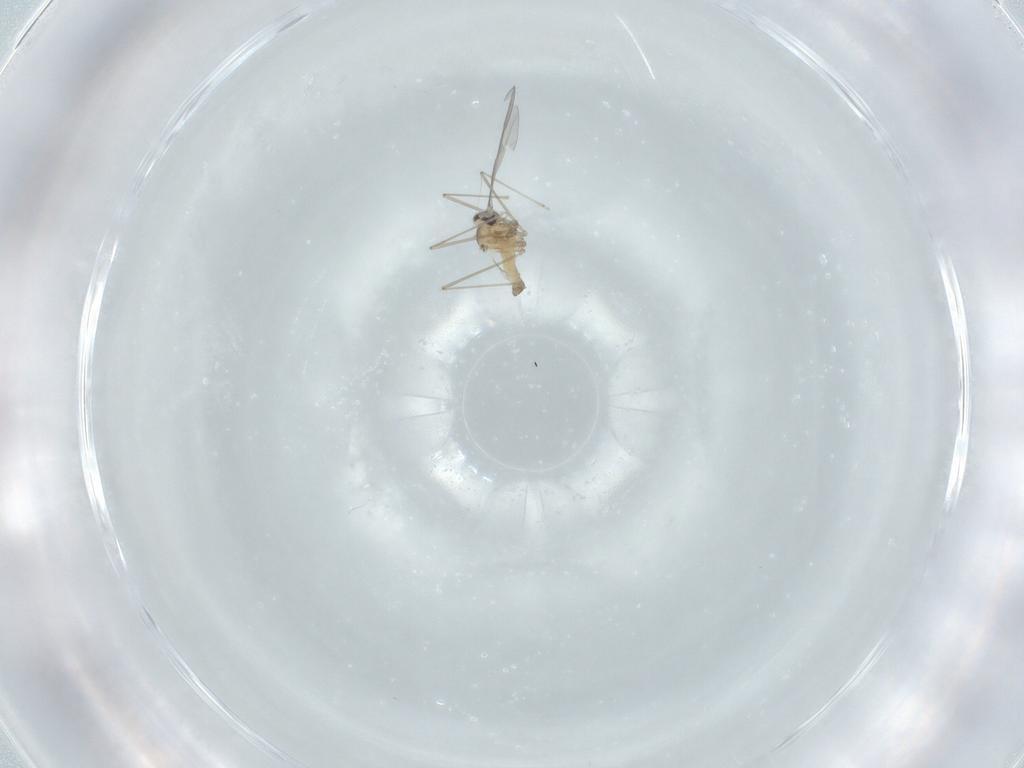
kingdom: Animalia
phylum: Arthropoda
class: Insecta
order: Diptera
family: Cecidomyiidae
